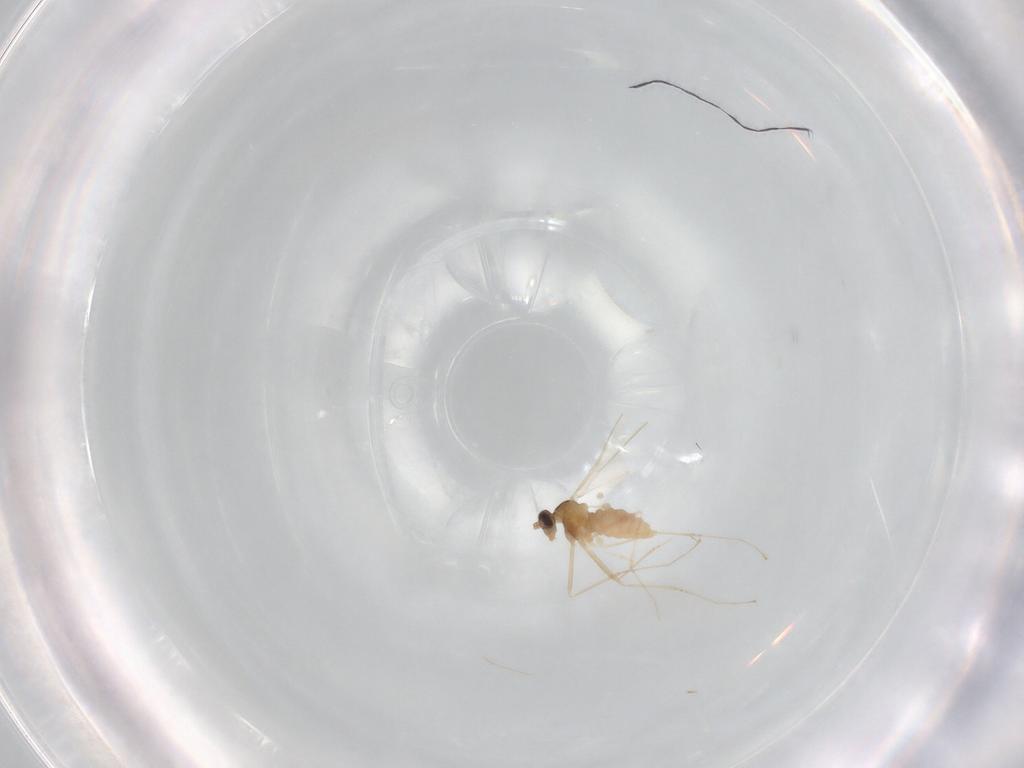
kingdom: Animalia
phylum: Arthropoda
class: Insecta
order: Diptera
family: Cecidomyiidae
